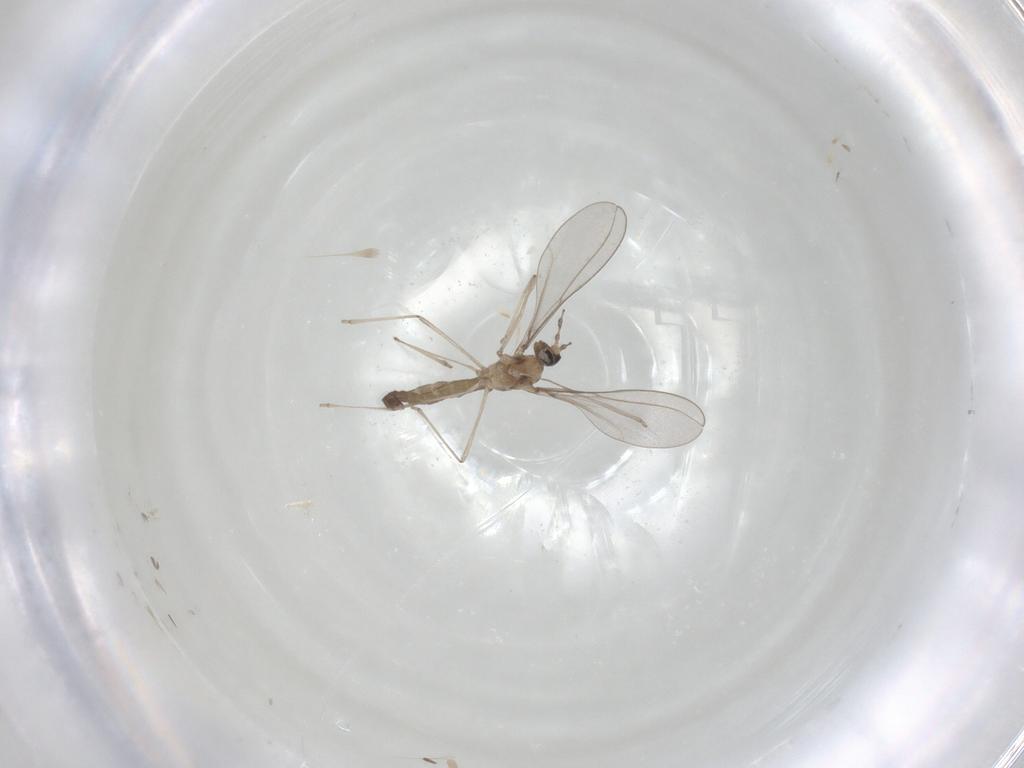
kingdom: Animalia
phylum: Arthropoda
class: Insecta
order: Diptera
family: Cecidomyiidae
